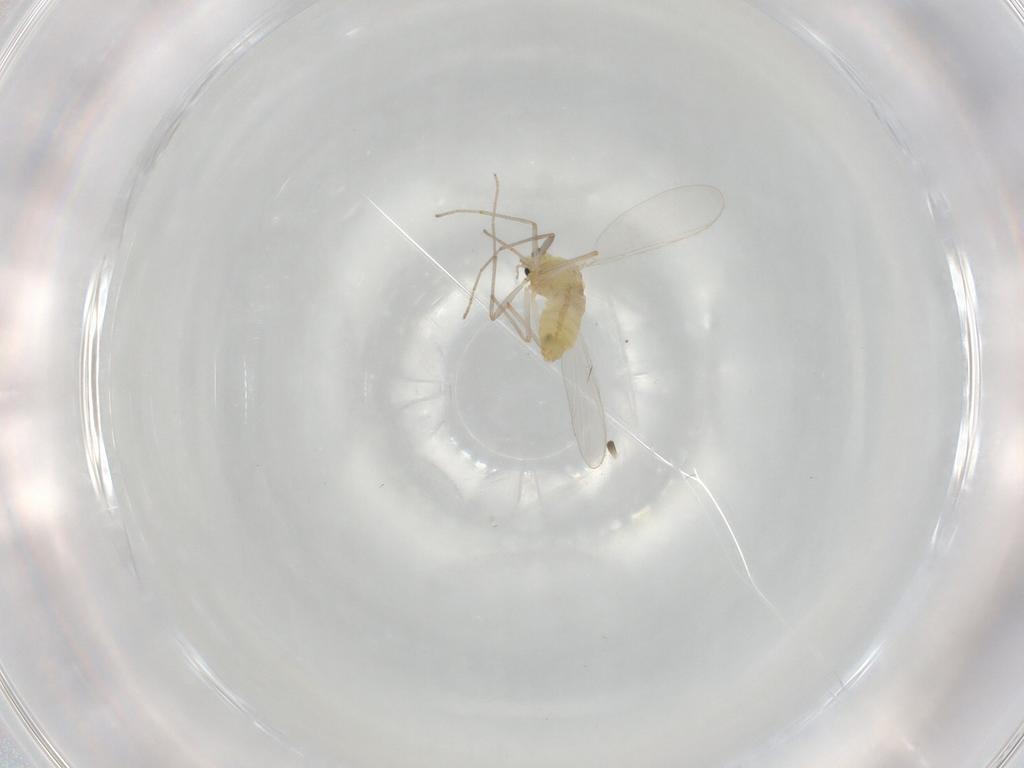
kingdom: Animalia
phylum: Arthropoda
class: Insecta
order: Diptera
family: Chironomidae
